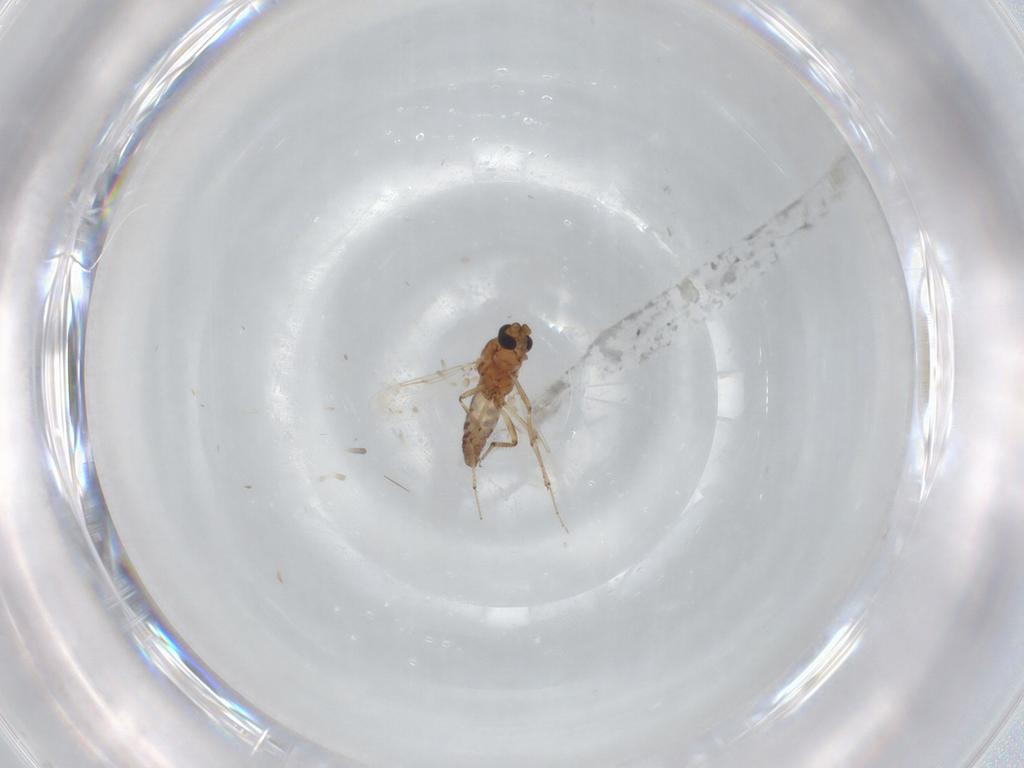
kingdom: Animalia
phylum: Arthropoda
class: Insecta
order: Diptera
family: Ceratopogonidae
